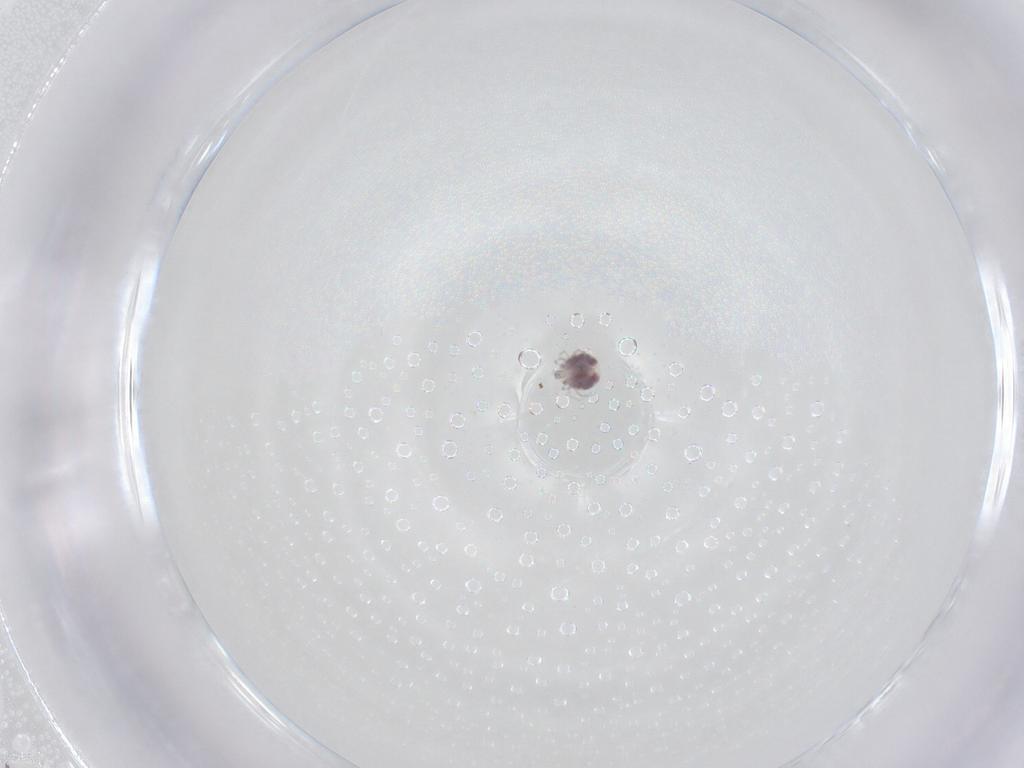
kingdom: Animalia
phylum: Arthropoda
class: Arachnida
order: Trombidiformes
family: Pionidae
